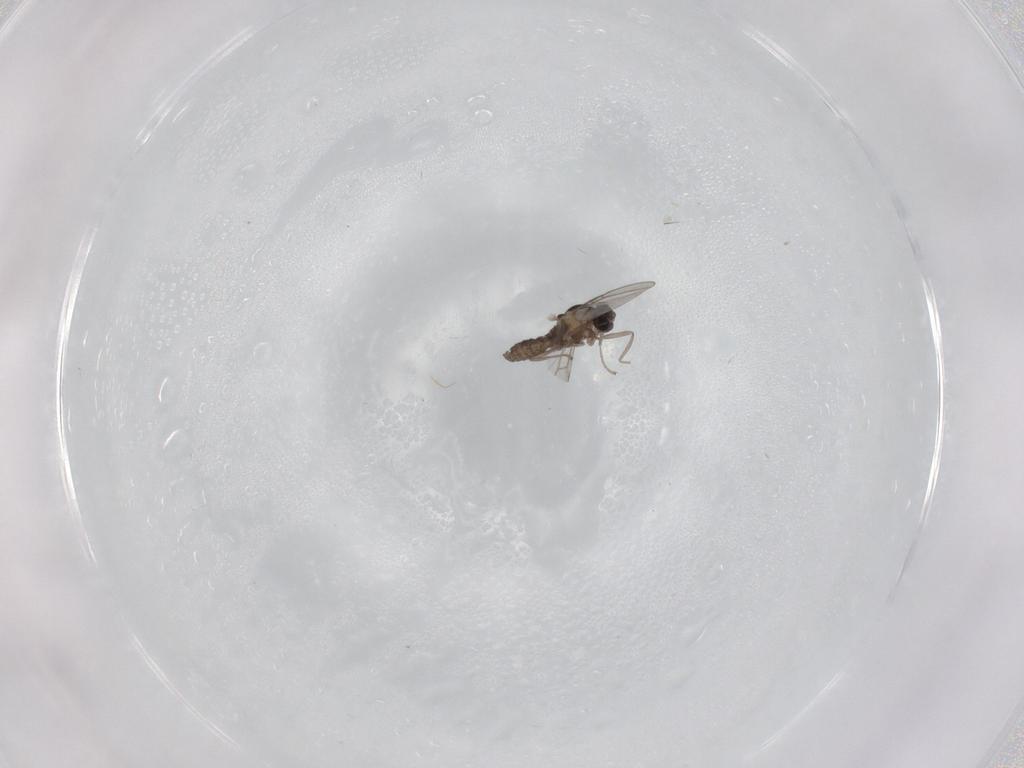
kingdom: Animalia
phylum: Arthropoda
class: Insecta
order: Diptera
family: Cecidomyiidae
